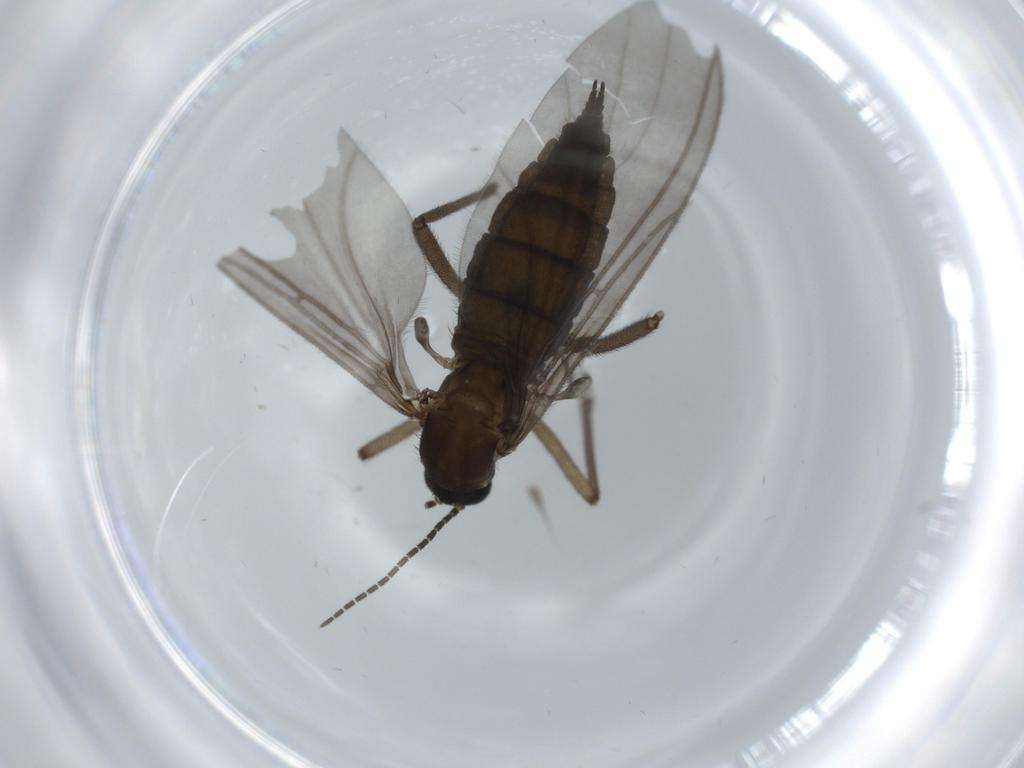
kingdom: Animalia
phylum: Arthropoda
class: Insecta
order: Diptera
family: Sciaridae
